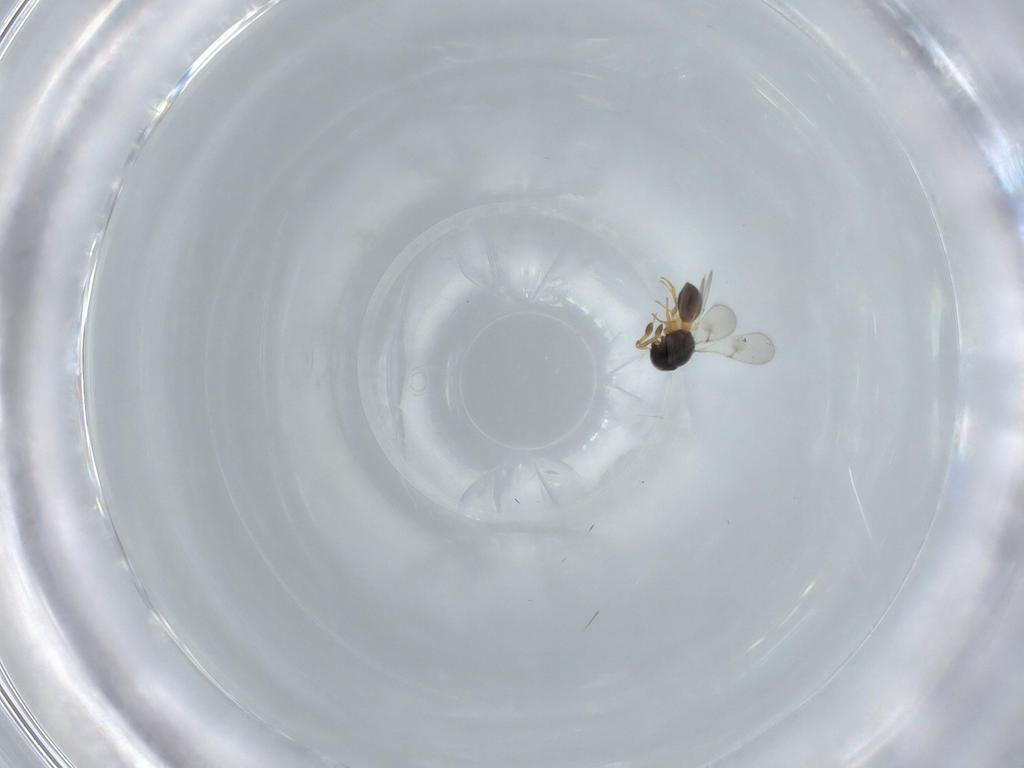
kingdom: Animalia
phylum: Arthropoda
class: Insecta
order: Hymenoptera
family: Scelionidae
